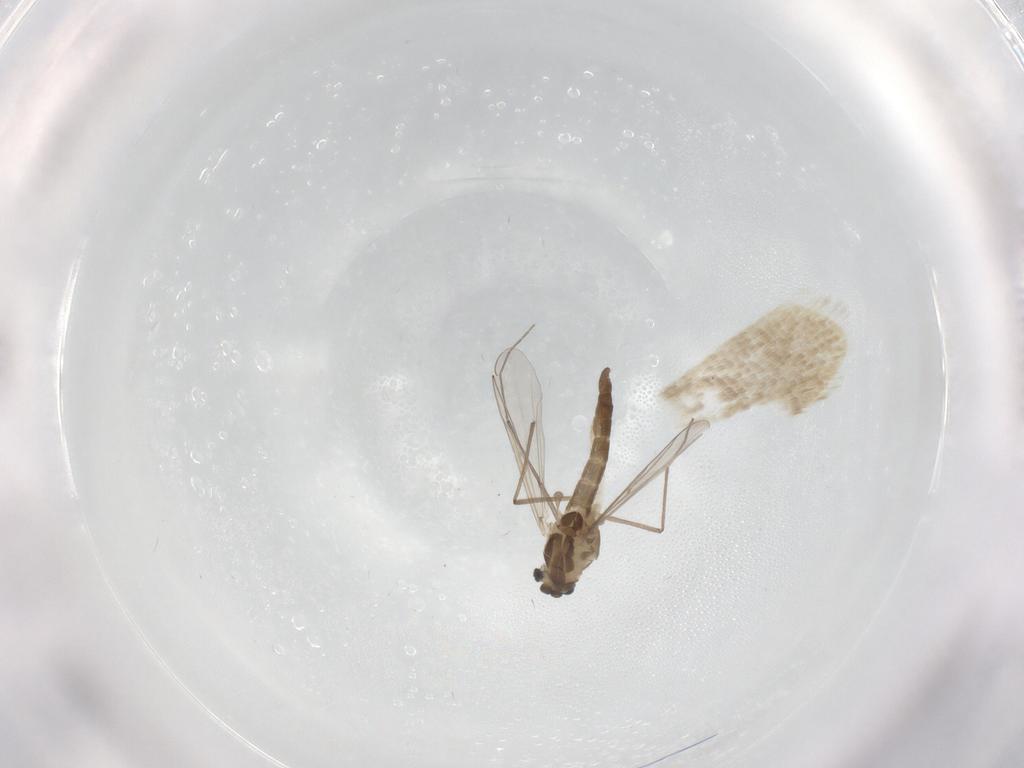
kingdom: Animalia
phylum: Arthropoda
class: Insecta
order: Diptera
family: Chironomidae
